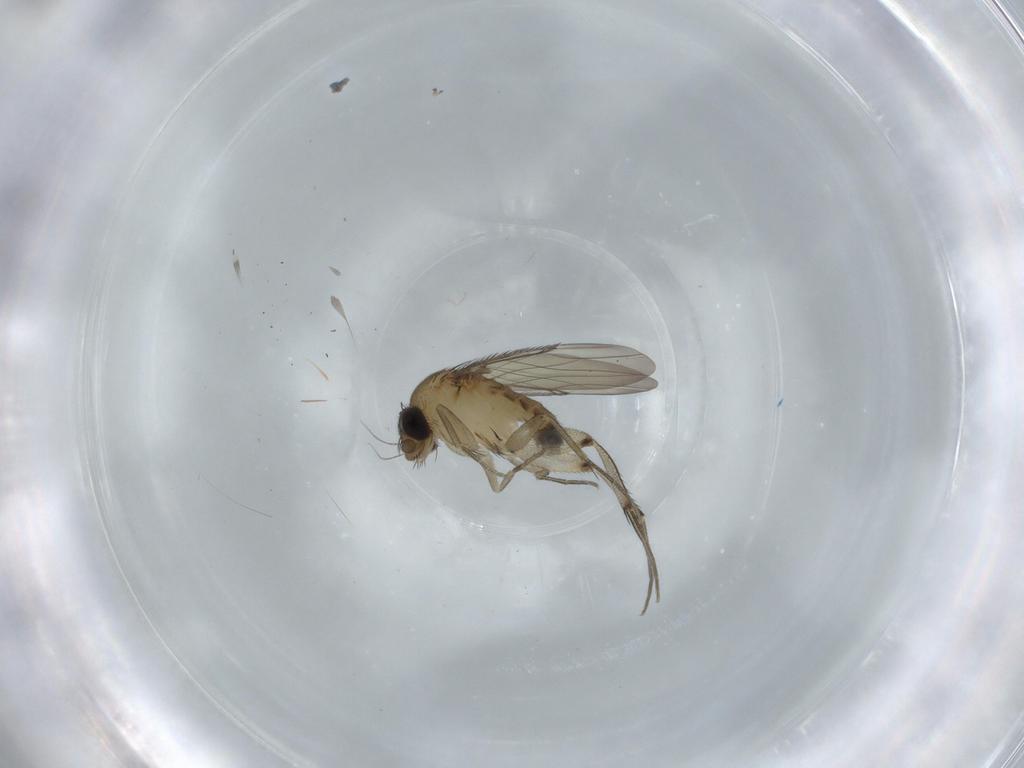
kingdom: Animalia
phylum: Arthropoda
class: Insecta
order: Diptera
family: Phoridae
